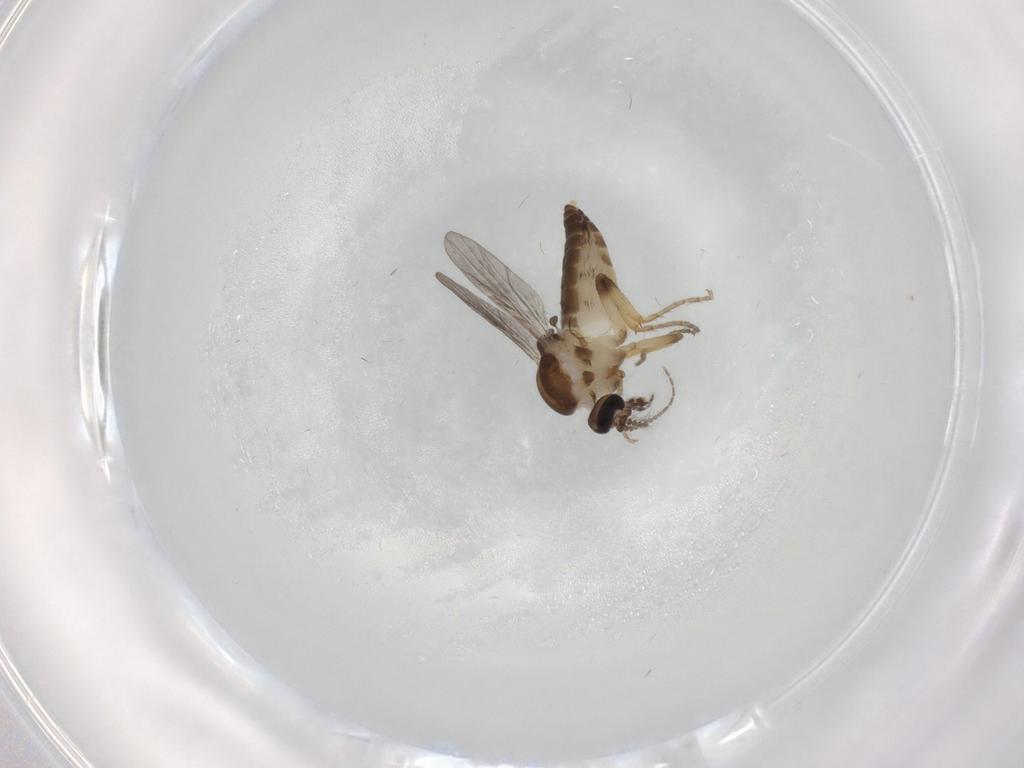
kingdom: Animalia
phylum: Arthropoda
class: Insecta
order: Diptera
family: Ceratopogonidae
